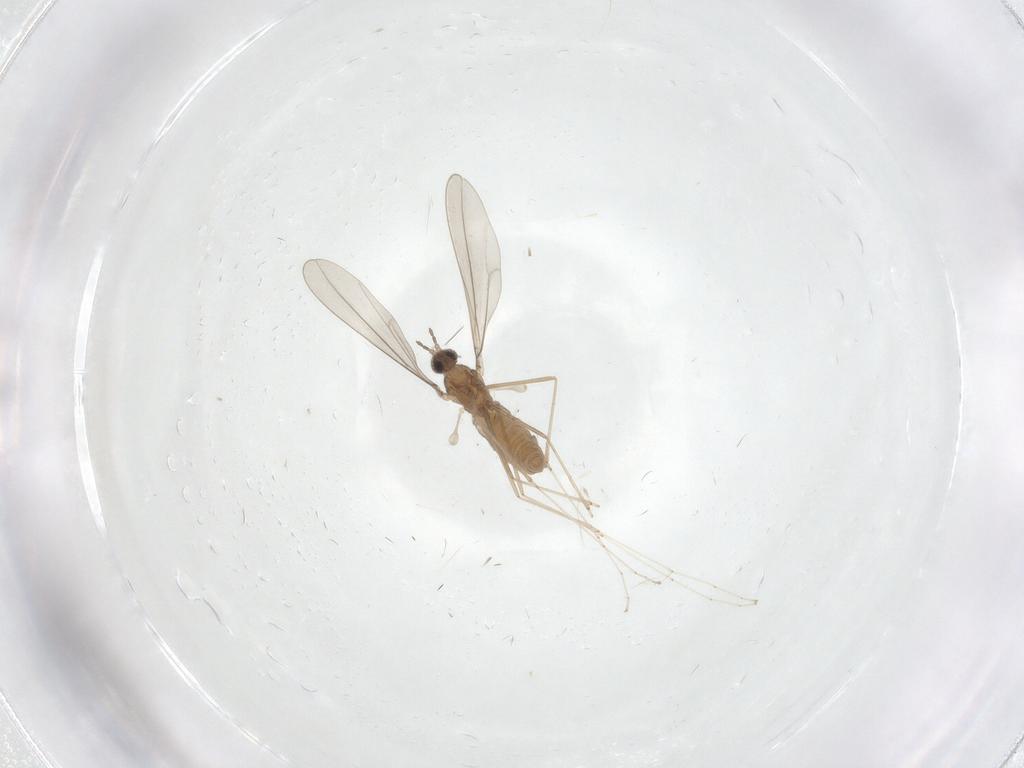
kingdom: Animalia
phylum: Arthropoda
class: Insecta
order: Diptera
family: Cecidomyiidae
